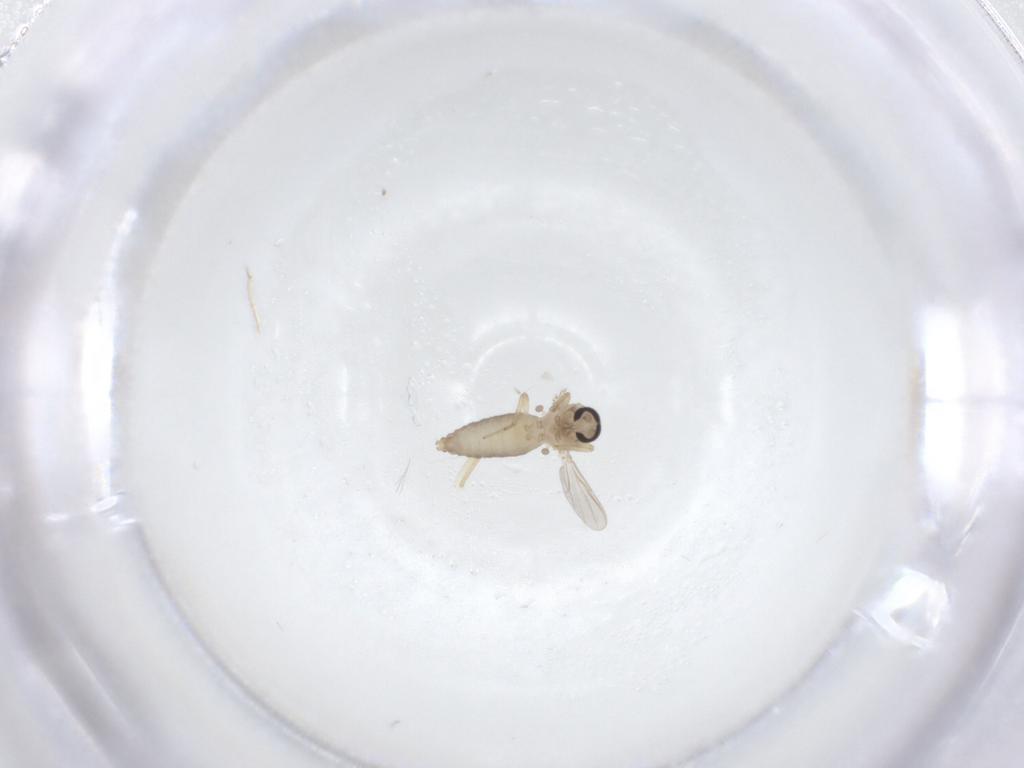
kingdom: Animalia
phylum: Arthropoda
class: Insecta
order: Diptera
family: Ceratopogonidae
